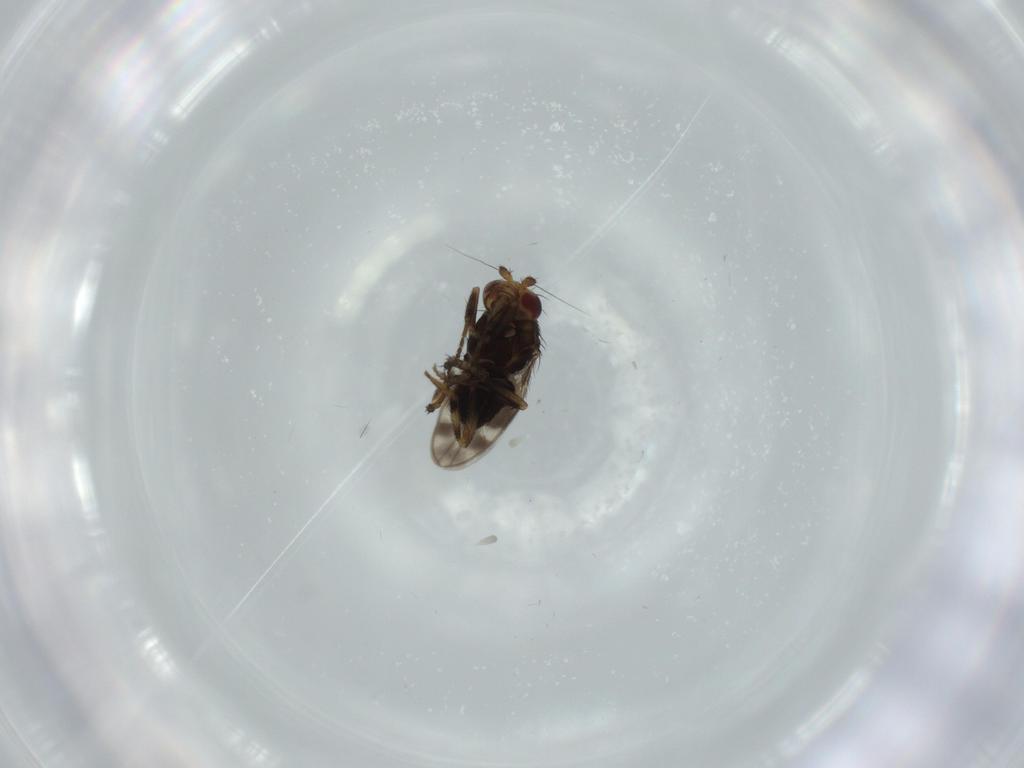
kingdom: Animalia
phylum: Arthropoda
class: Insecta
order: Diptera
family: Sphaeroceridae
